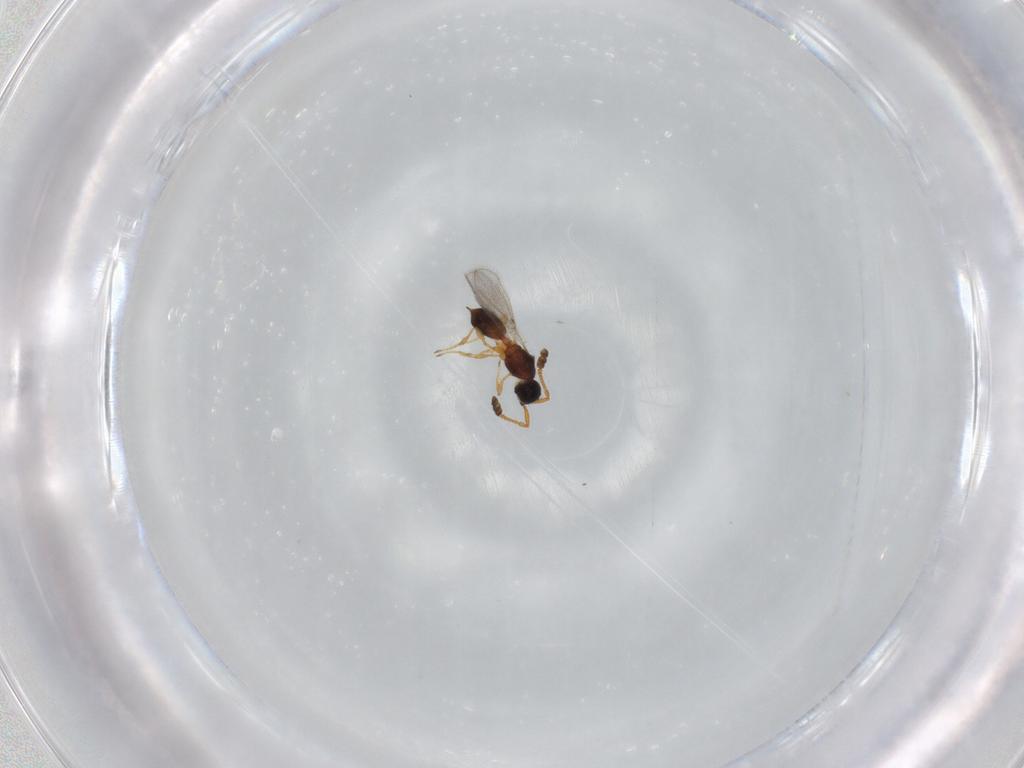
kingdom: Animalia
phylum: Arthropoda
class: Insecta
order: Hymenoptera
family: Diapriidae
